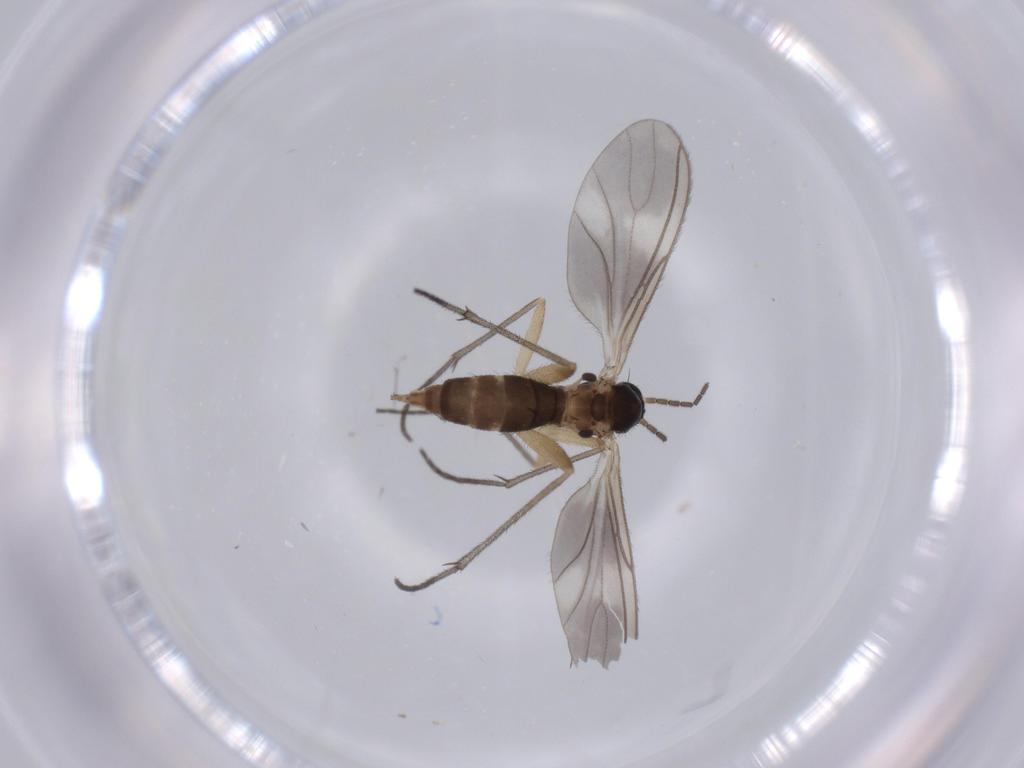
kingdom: Animalia
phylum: Arthropoda
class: Insecta
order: Diptera
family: Sciaridae
